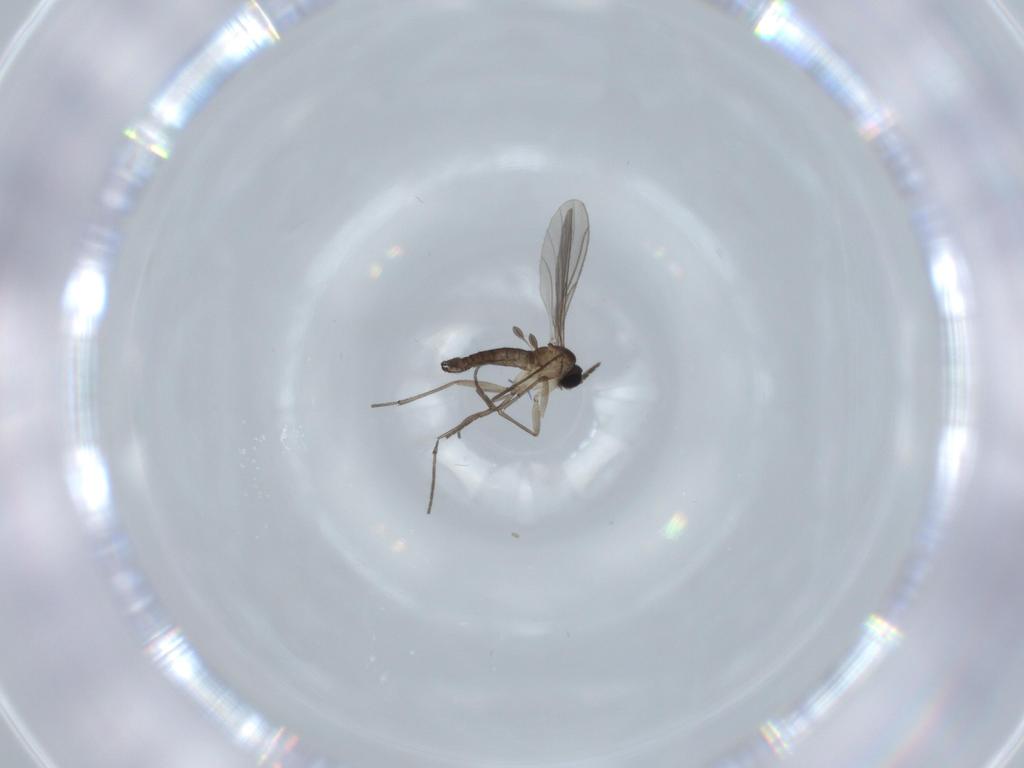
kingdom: Animalia
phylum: Arthropoda
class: Insecta
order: Diptera
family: Sciaridae
